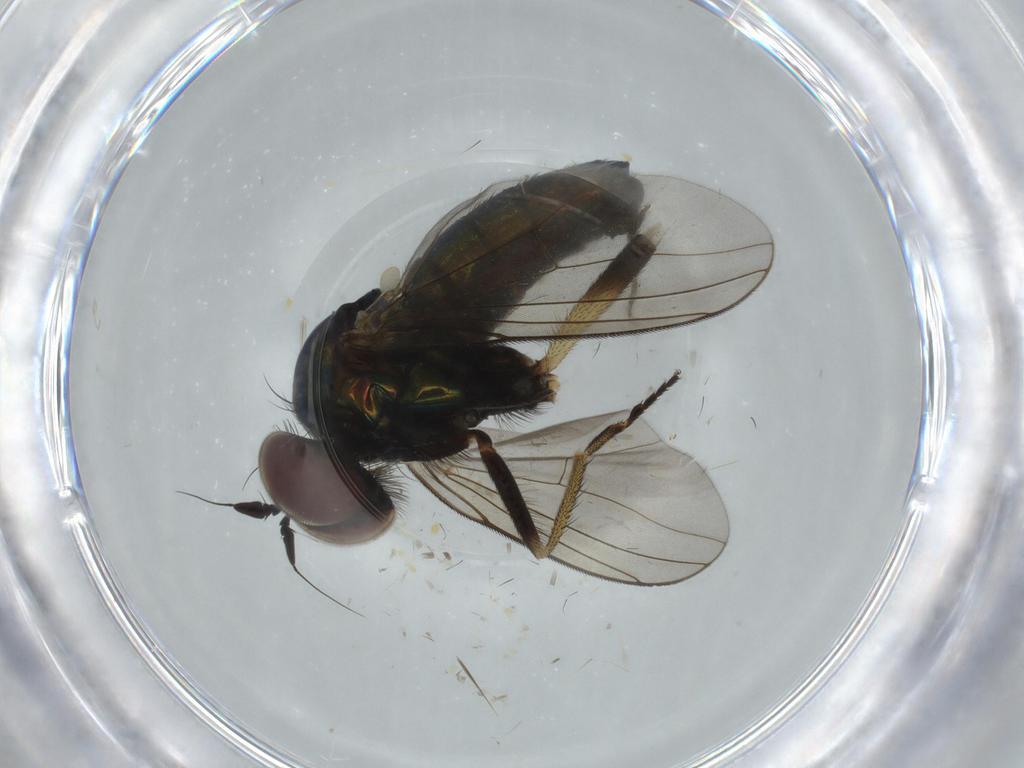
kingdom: Animalia
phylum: Arthropoda
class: Insecta
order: Diptera
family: Dolichopodidae
